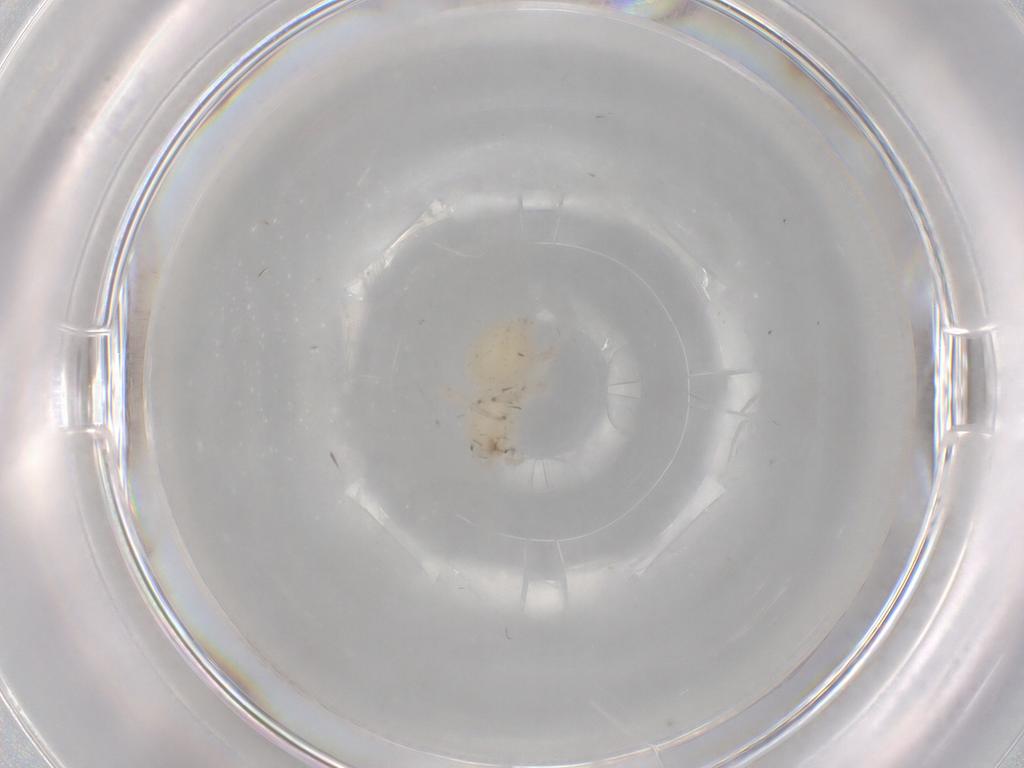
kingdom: Animalia
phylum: Arthropoda
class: Arachnida
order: Araneae
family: Anyphaenidae
